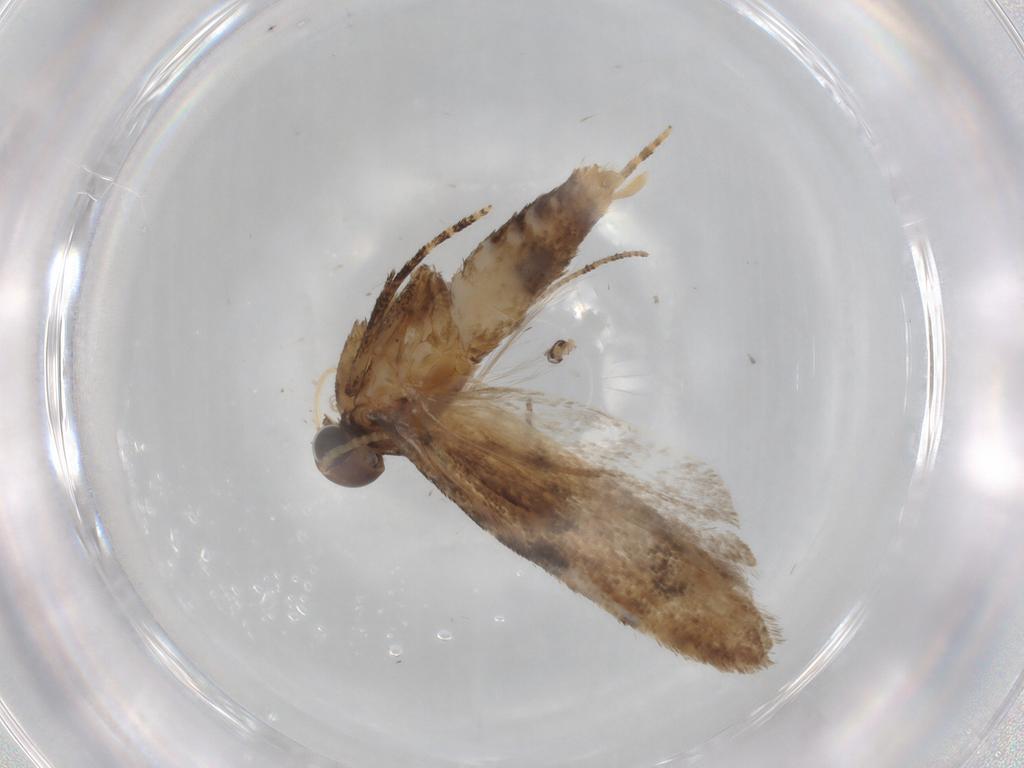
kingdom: Animalia
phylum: Arthropoda
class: Insecta
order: Lepidoptera
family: Gelechiidae
